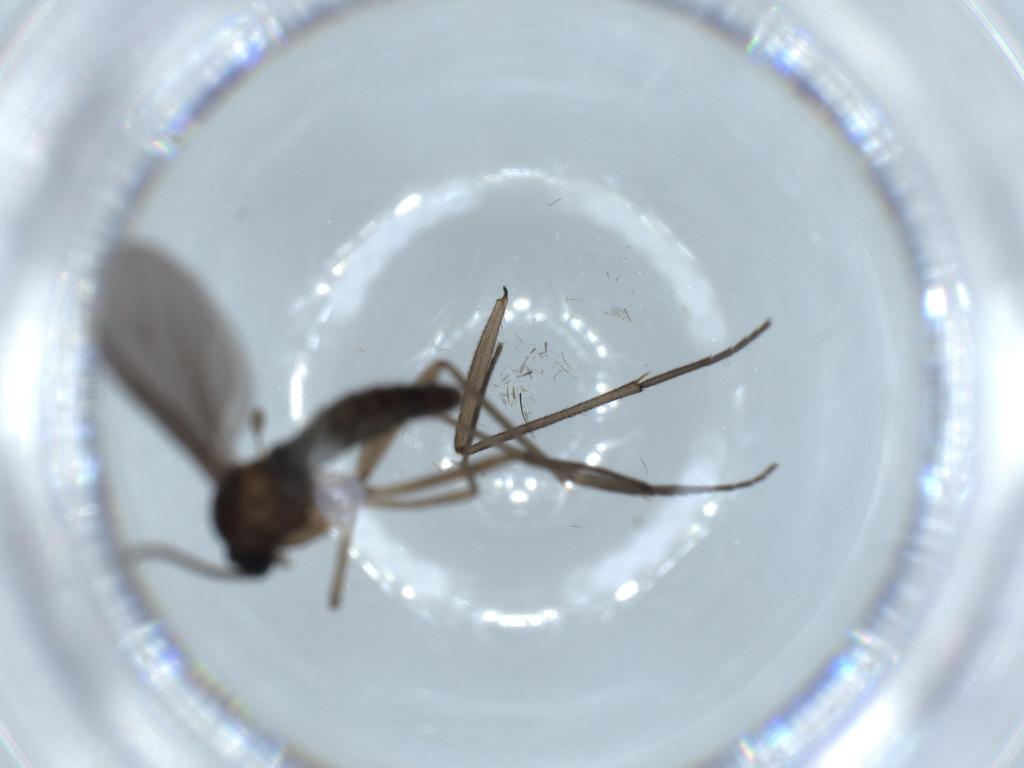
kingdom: Animalia
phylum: Arthropoda
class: Insecta
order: Diptera
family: Sciaridae
